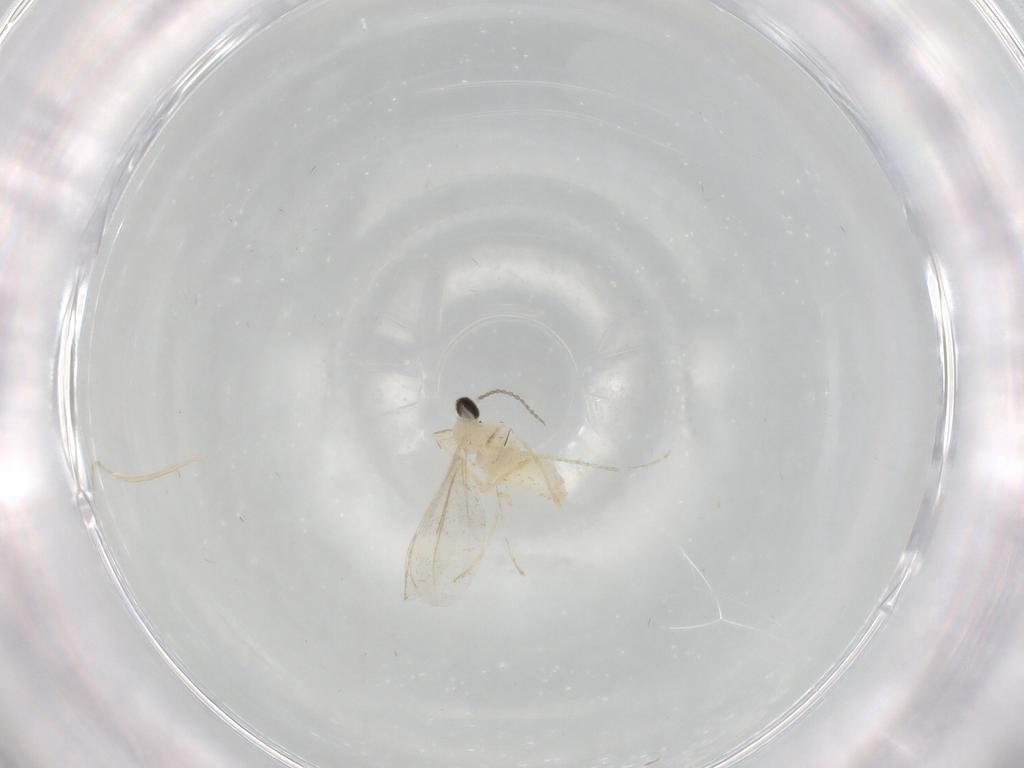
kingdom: Animalia
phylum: Arthropoda
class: Insecta
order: Diptera
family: Cecidomyiidae
